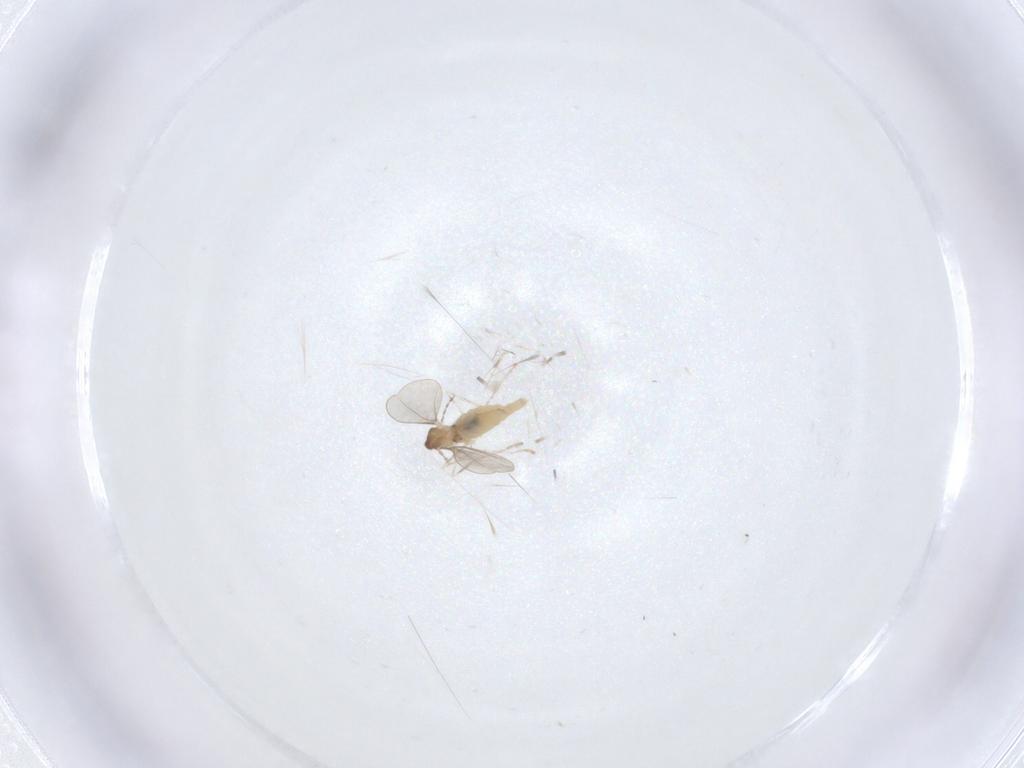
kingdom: Animalia
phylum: Arthropoda
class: Insecta
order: Diptera
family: Cecidomyiidae
